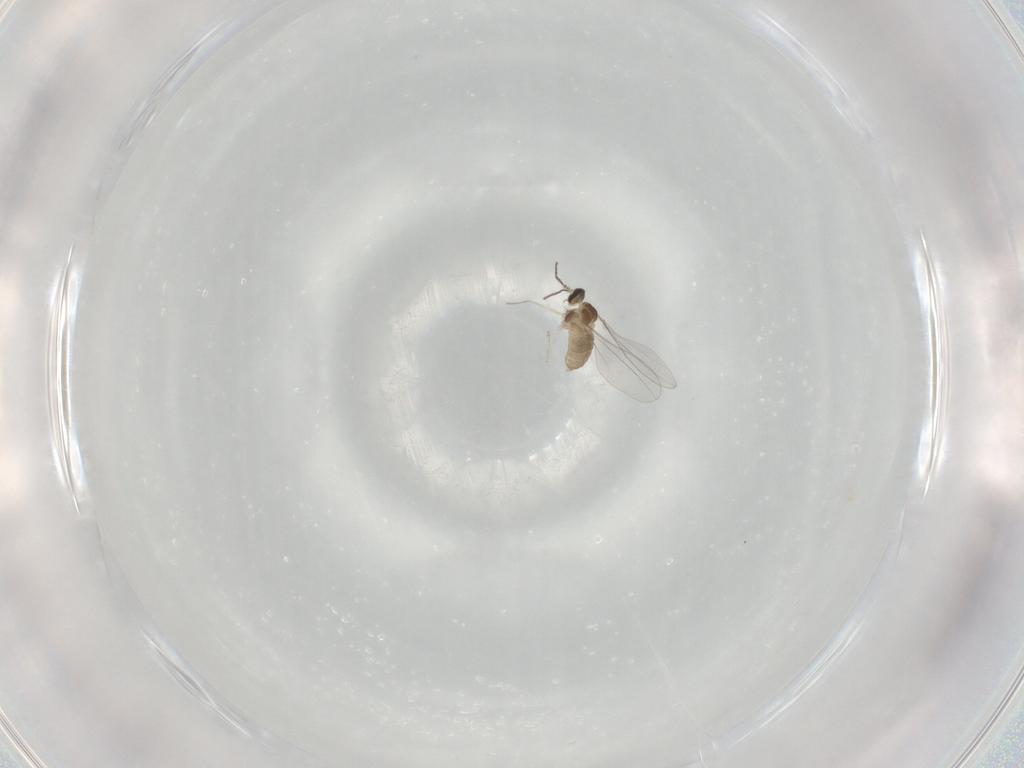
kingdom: Animalia
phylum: Arthropoda
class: Insecta
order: Diptera
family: Cecidomyiidae
